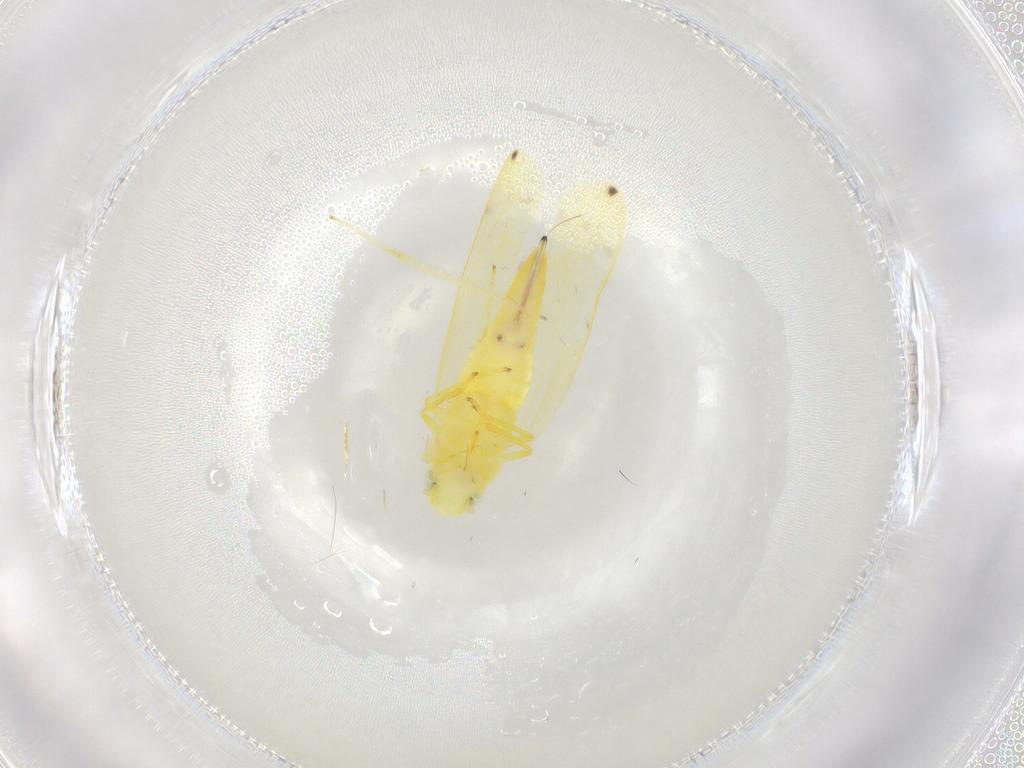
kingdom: Animalia
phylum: Arthropoda
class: Insecta
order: Hemiptera
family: Cicadellidae
